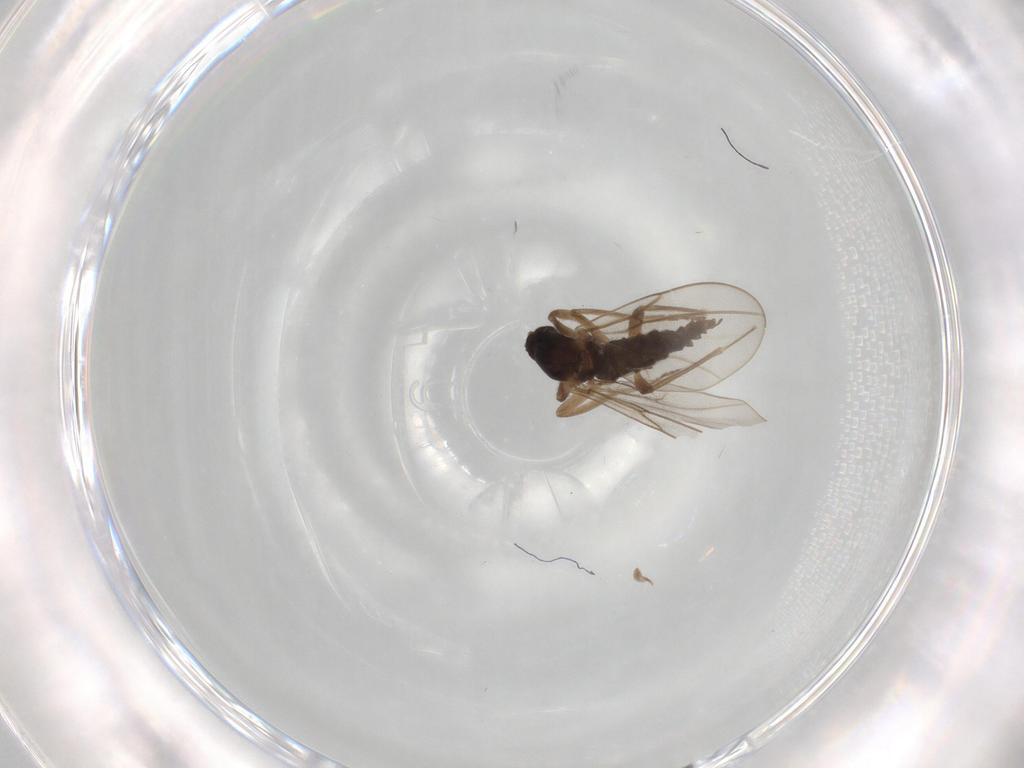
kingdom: Animalia
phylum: Arthropoda
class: Insecta
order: Diptera
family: Cecidomyiidae
